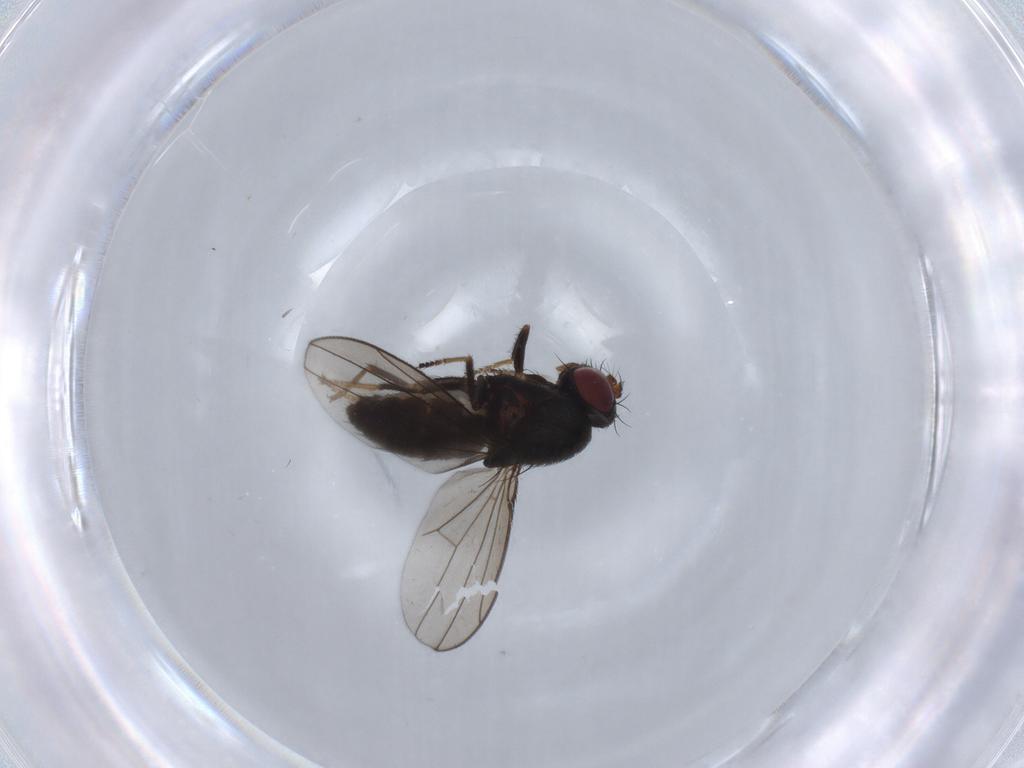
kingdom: Animalia
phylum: Arthropoda
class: Insecta
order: Diptera
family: Ephydridae
